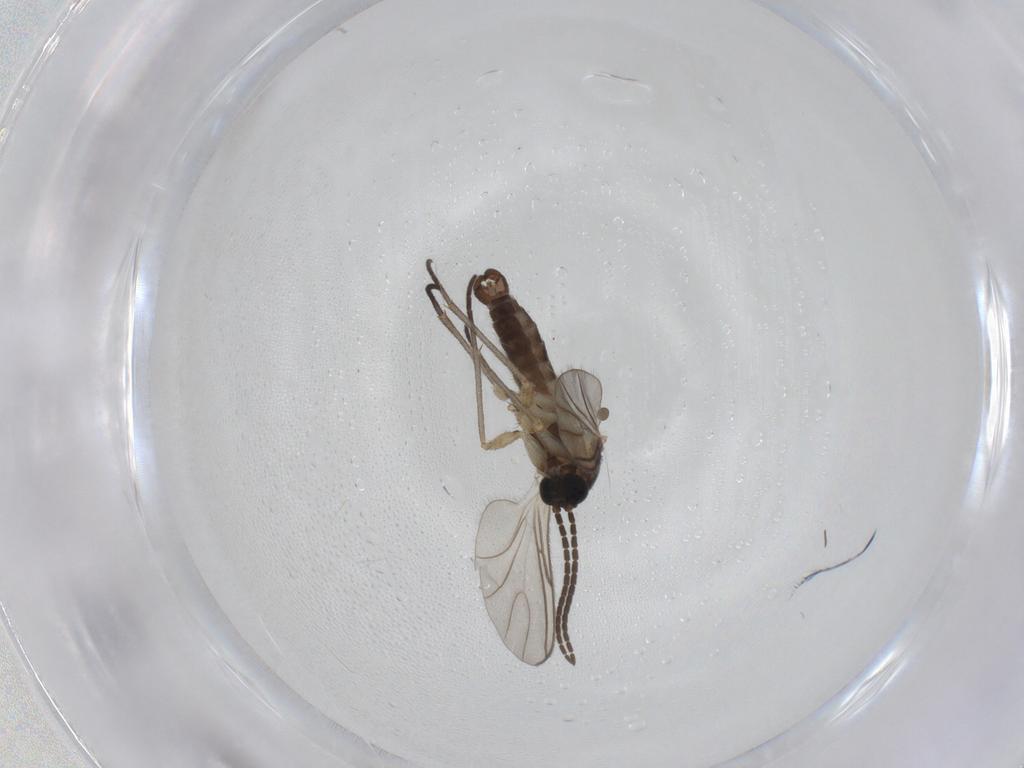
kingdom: Animalia
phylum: Arthropoda
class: Insecta
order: Diptera
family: Sciaridae
